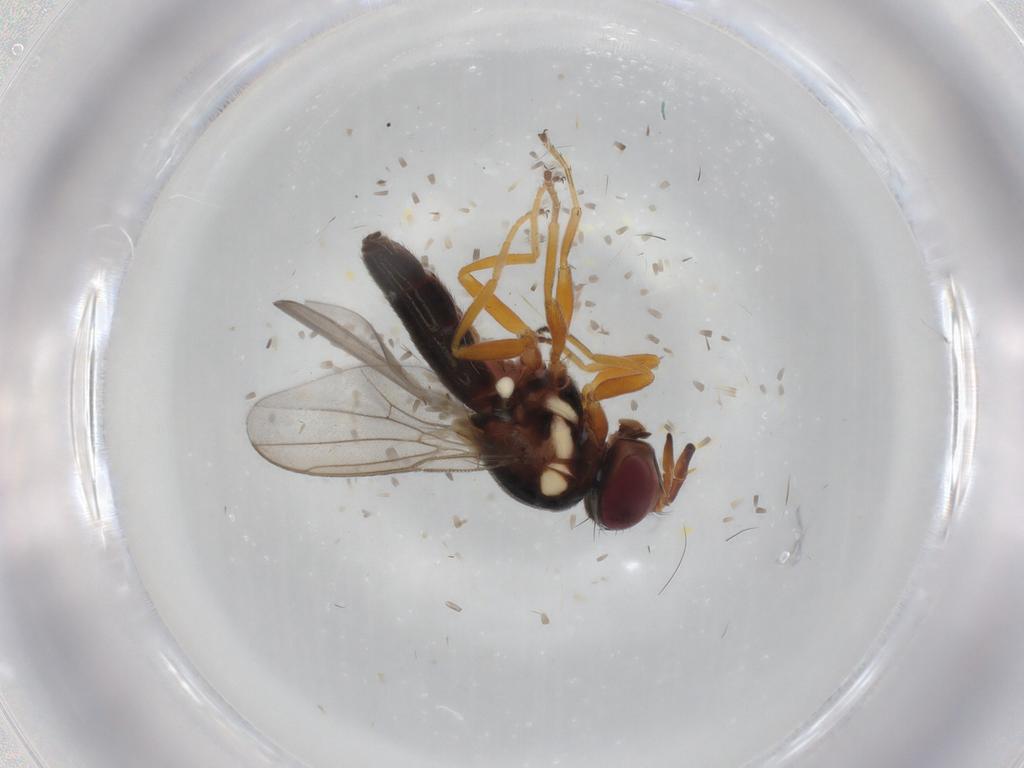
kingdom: Animalia
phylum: Arthropoda
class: Insecta
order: Diptera
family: Chloropidae
